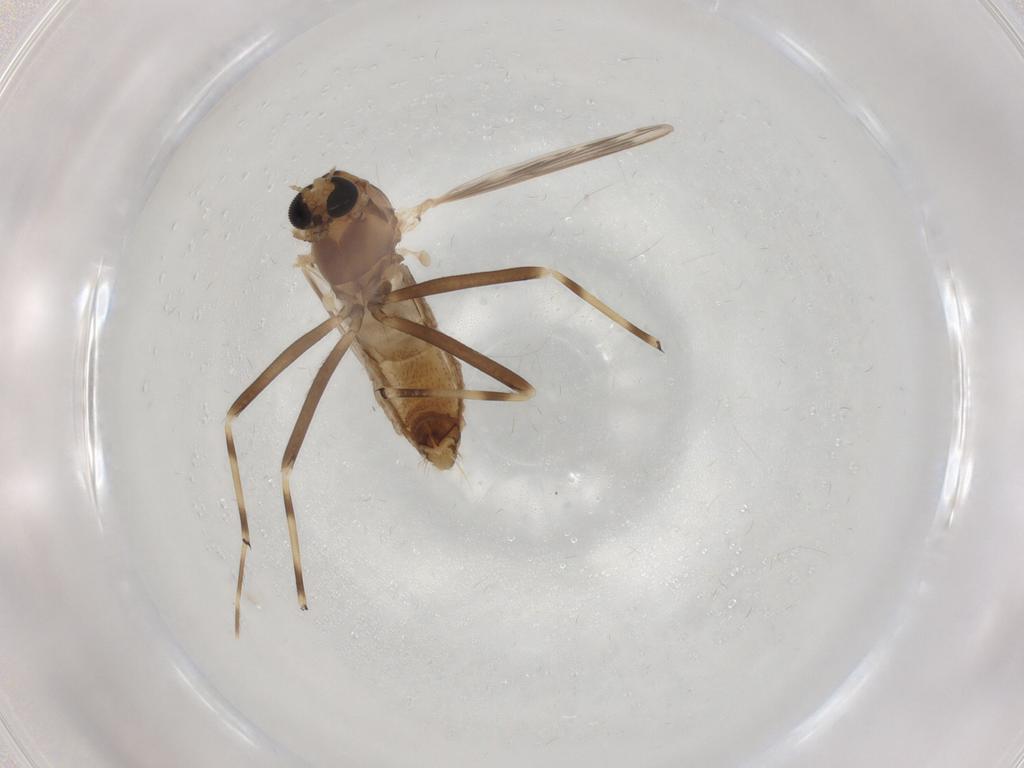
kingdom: Animalia
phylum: Arthropoda
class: Insecta
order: Diptera
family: Chironomidae
